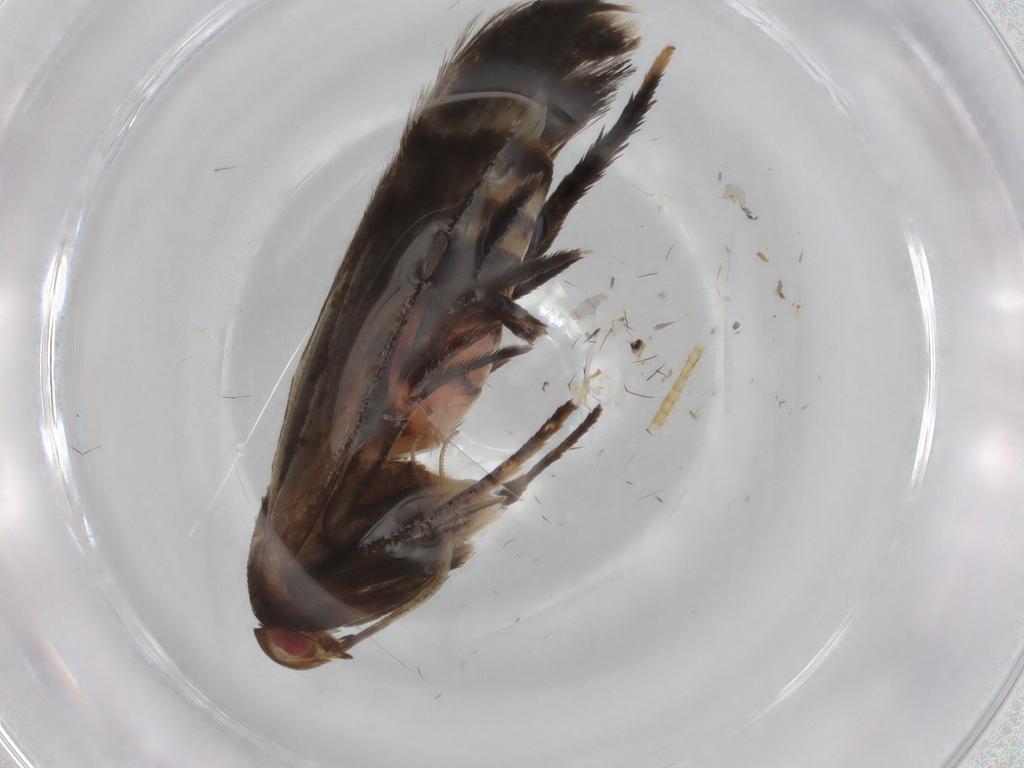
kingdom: Animalia
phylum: Arthropoda
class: Insecta
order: Lepidoptera
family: Cosmopterigidae
